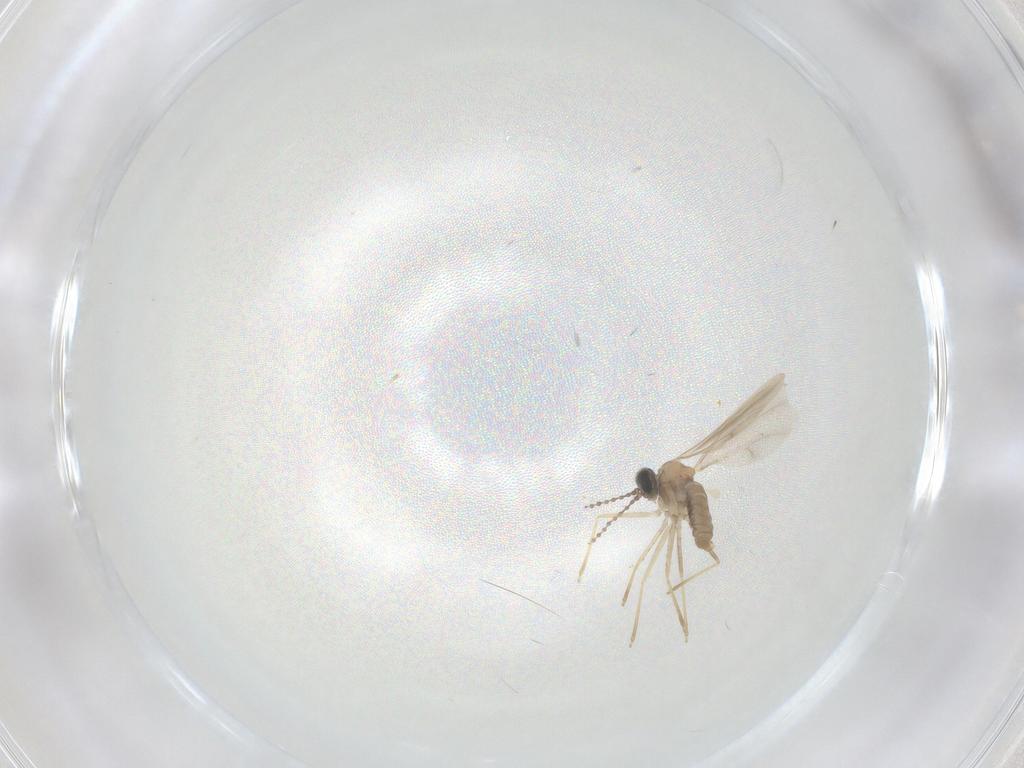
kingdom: Animalia
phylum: Arthropoda
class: Insecta
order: Diptera
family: Cecidomyiidae
